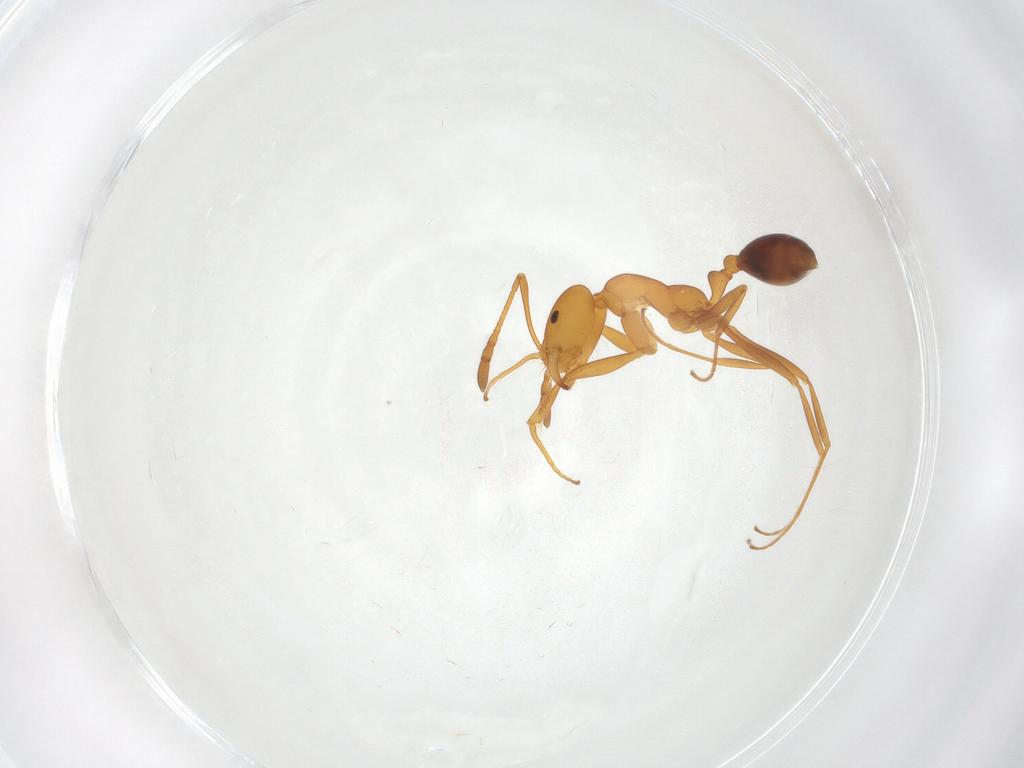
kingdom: Animalia
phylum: Arthropoda
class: Insecta
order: Hymenoptera
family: Formicidae
